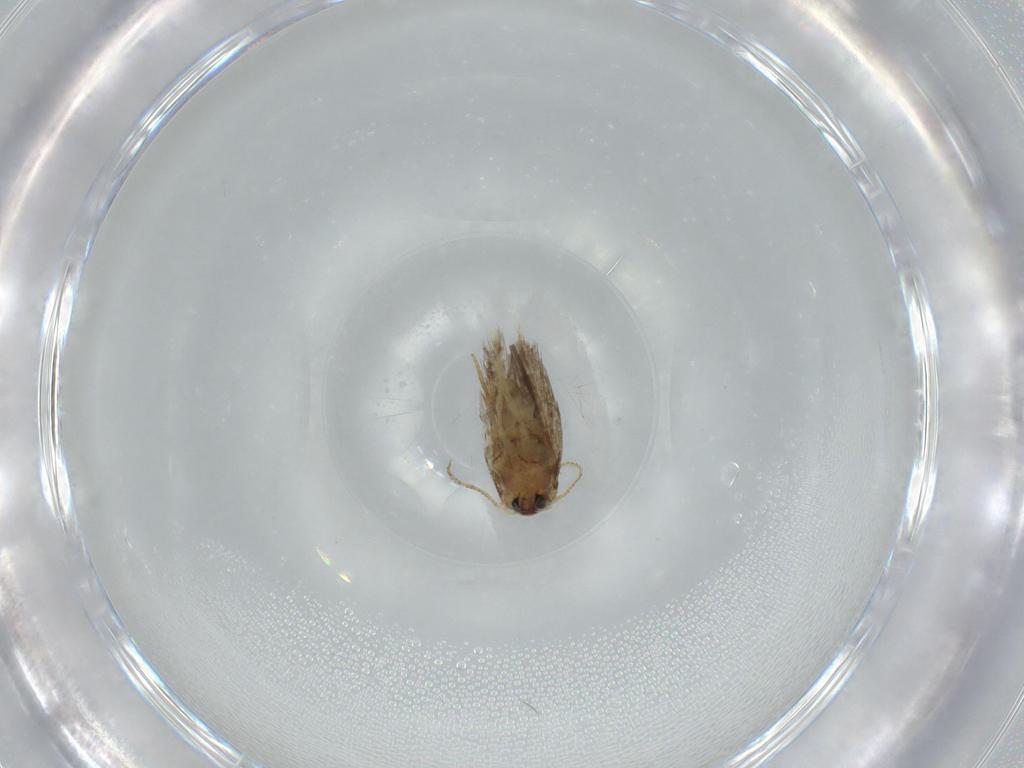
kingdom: Animalia
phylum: Arthropoda
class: Insecta
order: Lepidoptera
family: Nepticulidae
